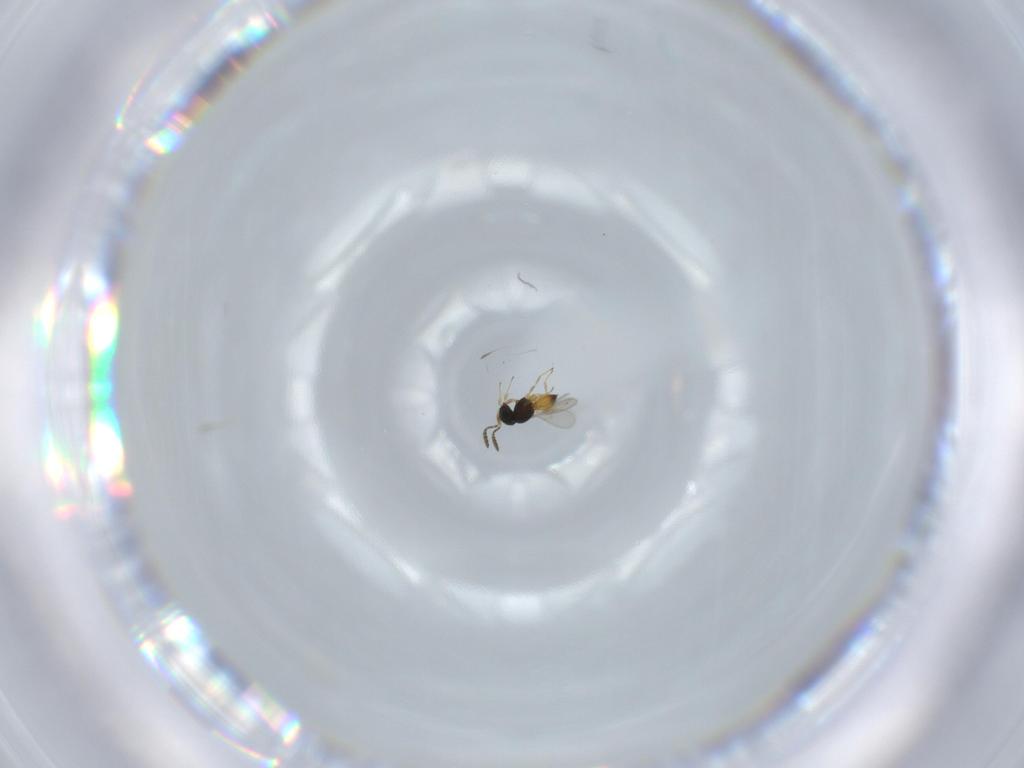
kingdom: Animalia
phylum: Arthropoda
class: Insecta
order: Hymenoptera
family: Scelionidae
